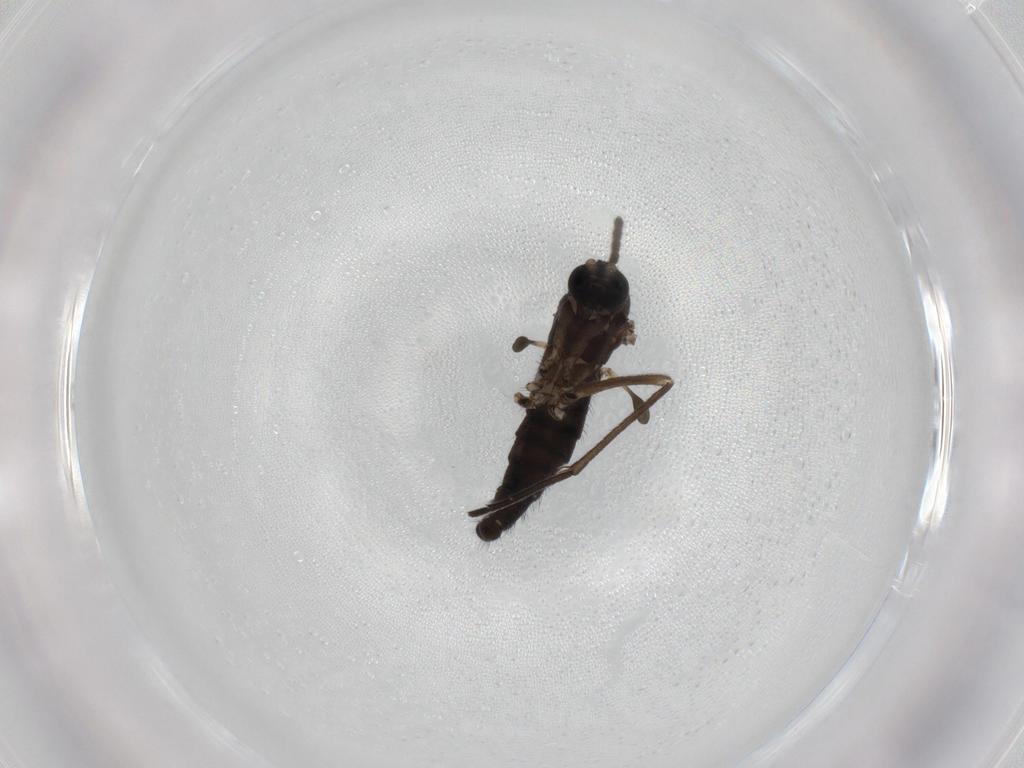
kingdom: Animalia
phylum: Arthropoda
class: Insecta
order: Diptera
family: Sciaridae
